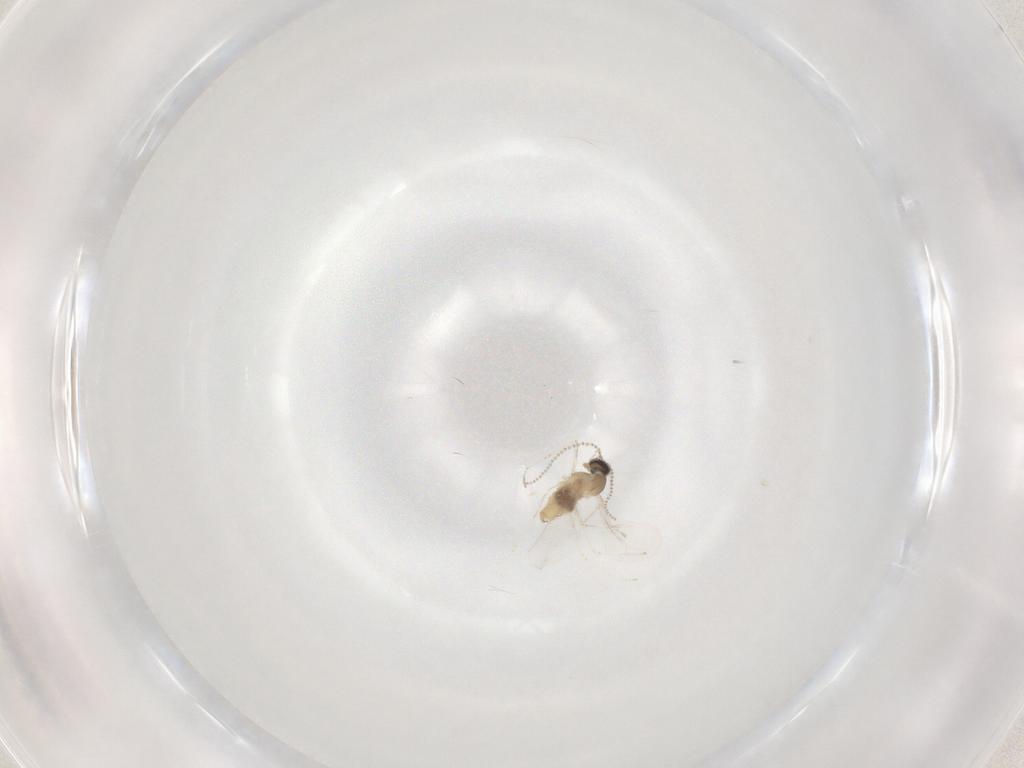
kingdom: Animalia
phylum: Arthropoda
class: Insecta
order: Diptera
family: Cecidomyiidae
